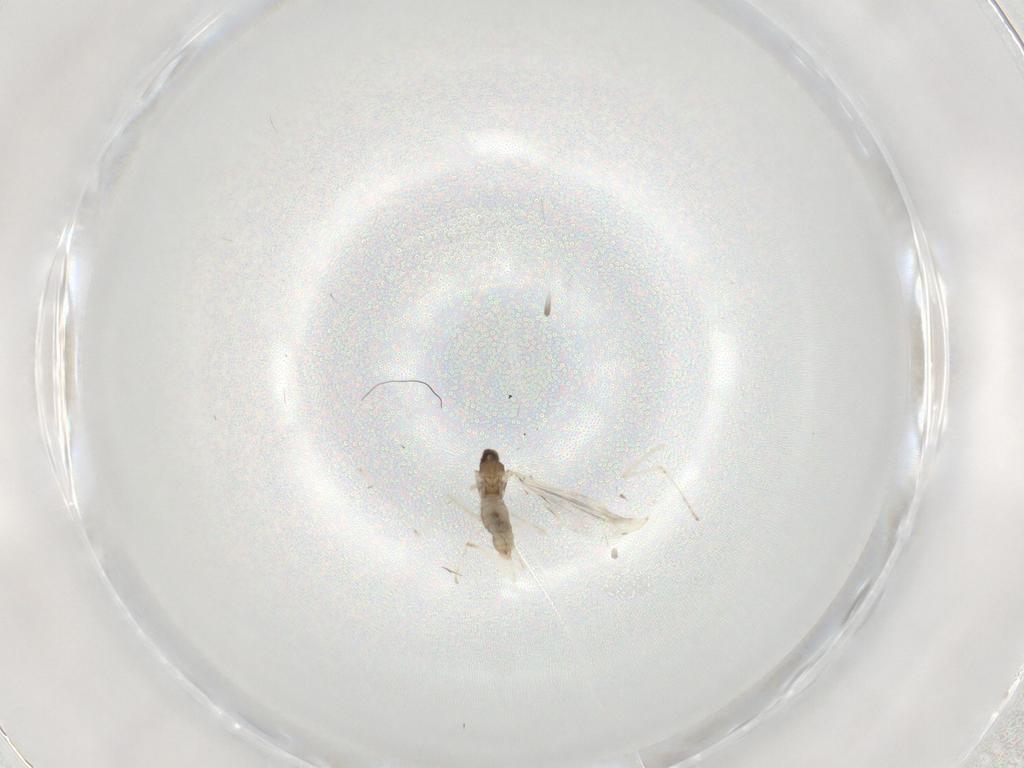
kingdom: Animalia
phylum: Arthropoda
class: Insecta
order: Diptera
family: Cecidomyiidae
